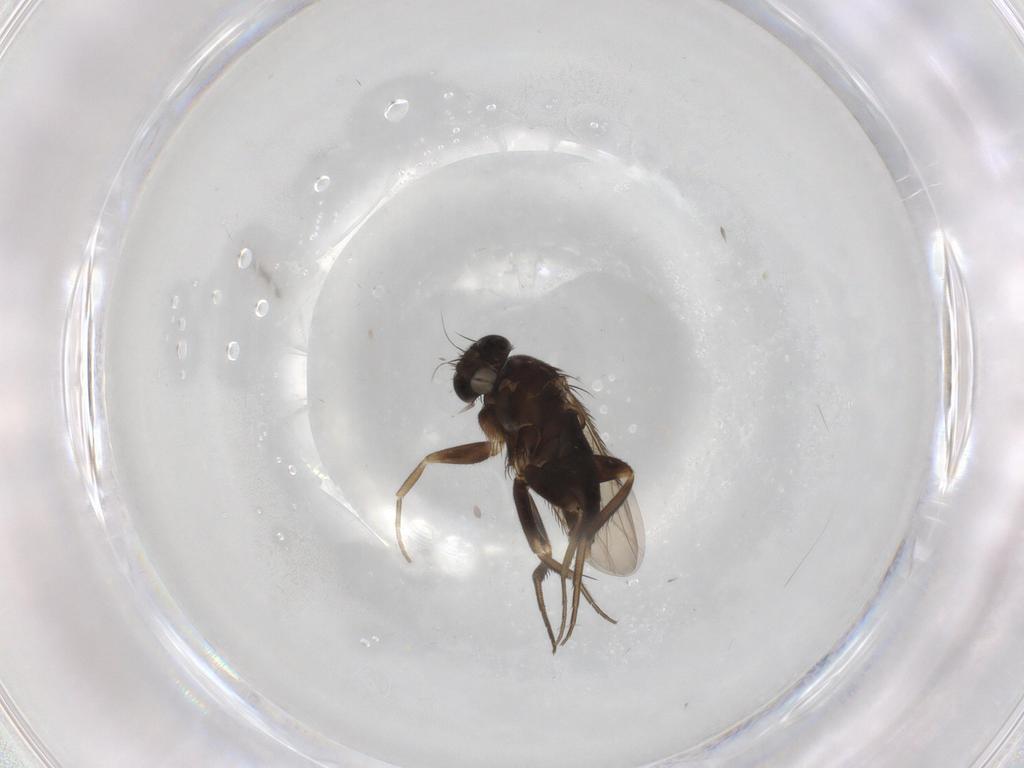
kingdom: Animalia
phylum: Arthropoda
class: Insecta
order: Diptera
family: Phoridae
